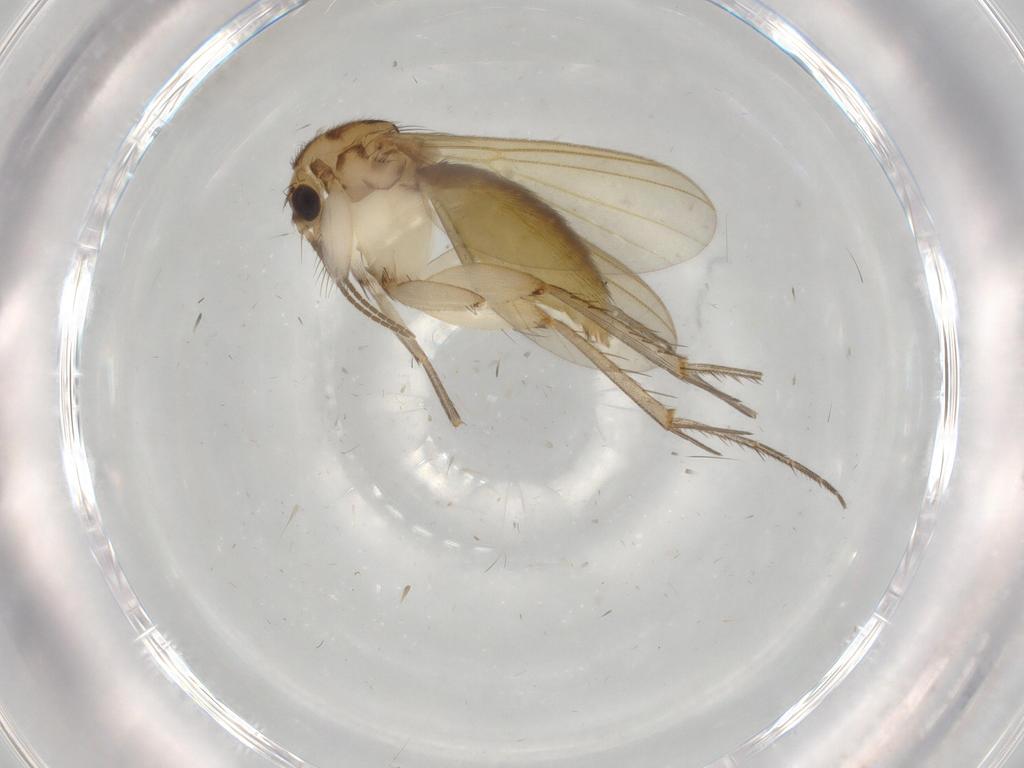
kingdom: Animalia
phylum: Arthropoda
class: Insecta
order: Diptera
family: Mycetophilidae
